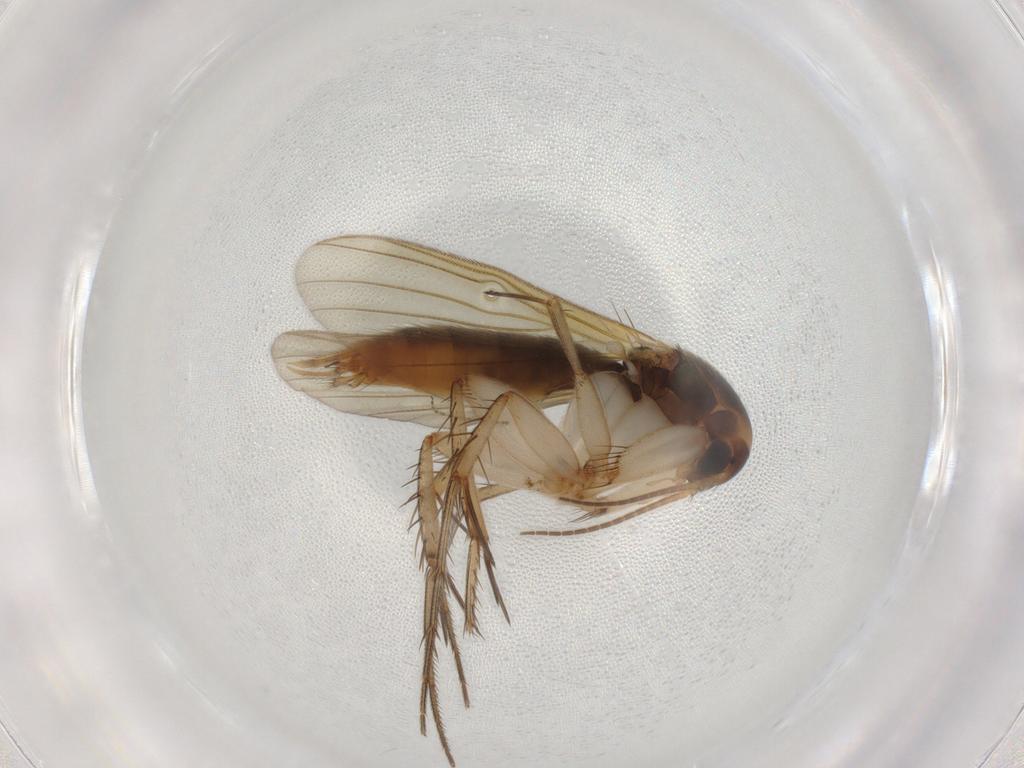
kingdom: Animalia
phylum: Arthropoda
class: Insecta
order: Diptera
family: Mycetophilidae
